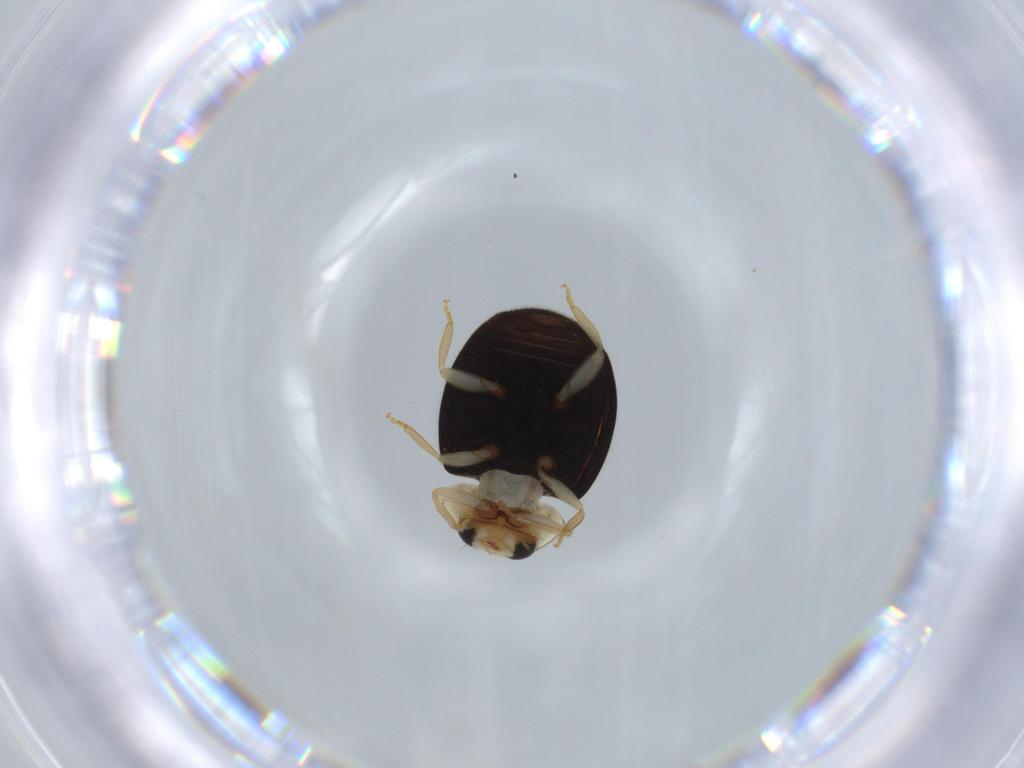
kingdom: Animalia
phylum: Arthropoda
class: Insecta
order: Coleoptera
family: Coccinellidae
